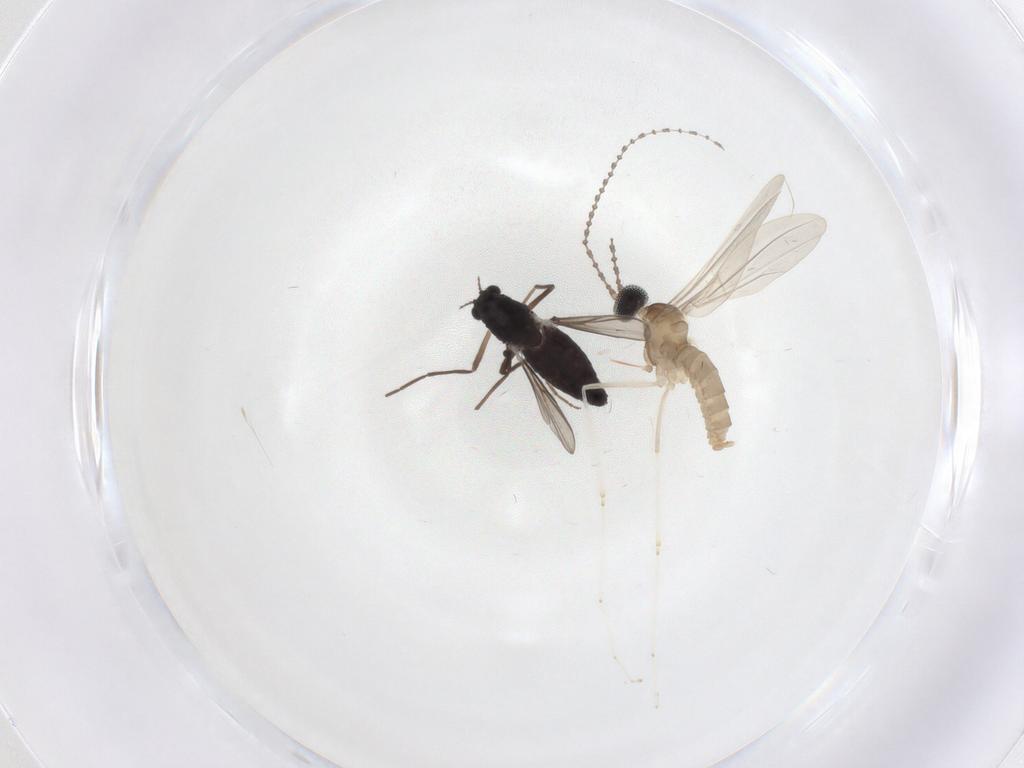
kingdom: Animalia
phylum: Arthropoda
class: Insecta
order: Diptera
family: Chironomidae
